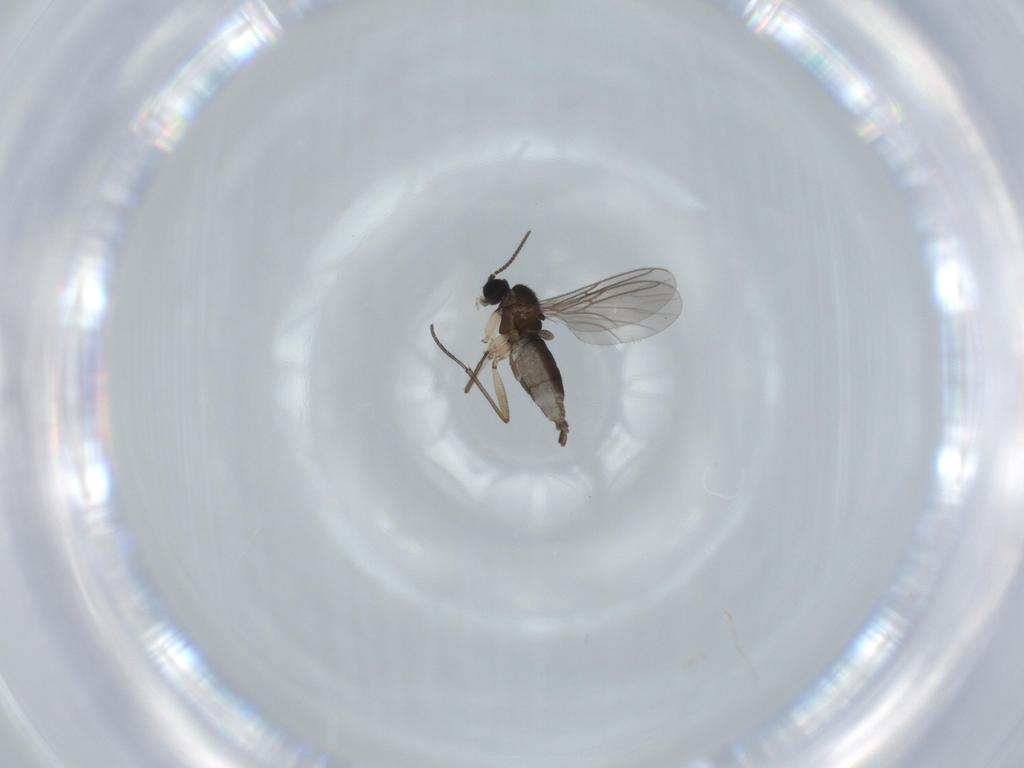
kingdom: Animalia
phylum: Arthropoda
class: Insecta
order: Diptera
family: Sciaridae
